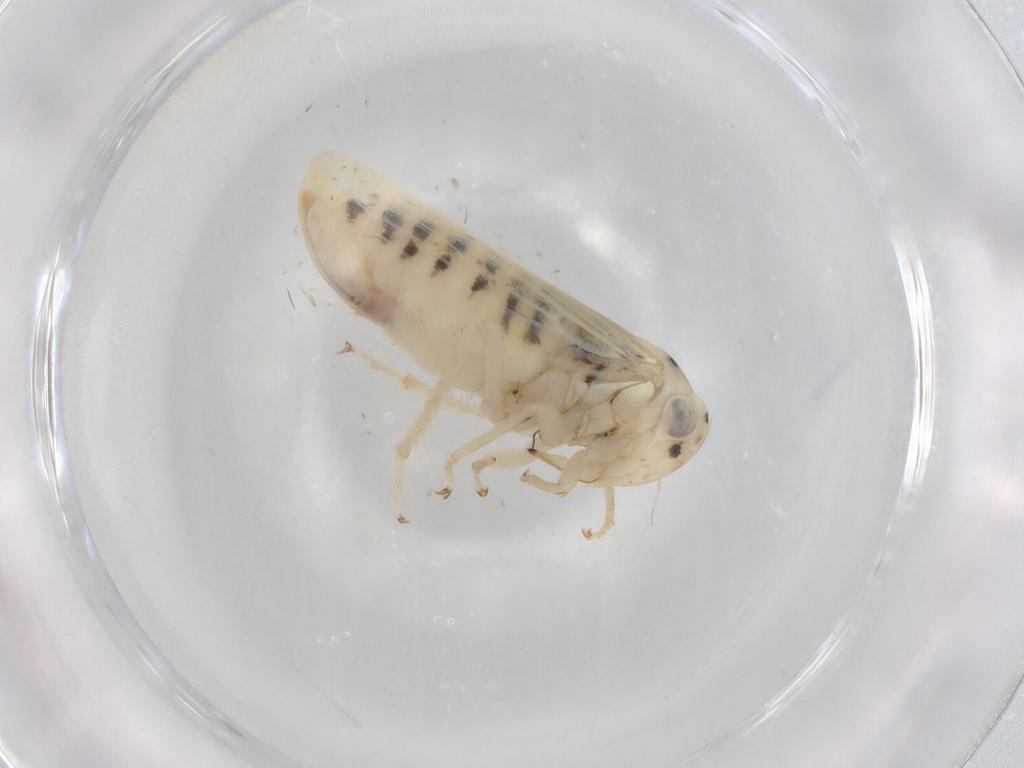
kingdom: Animalia
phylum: Arthropoda
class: Insecta
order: Hemiptera
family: Cicadellidae
